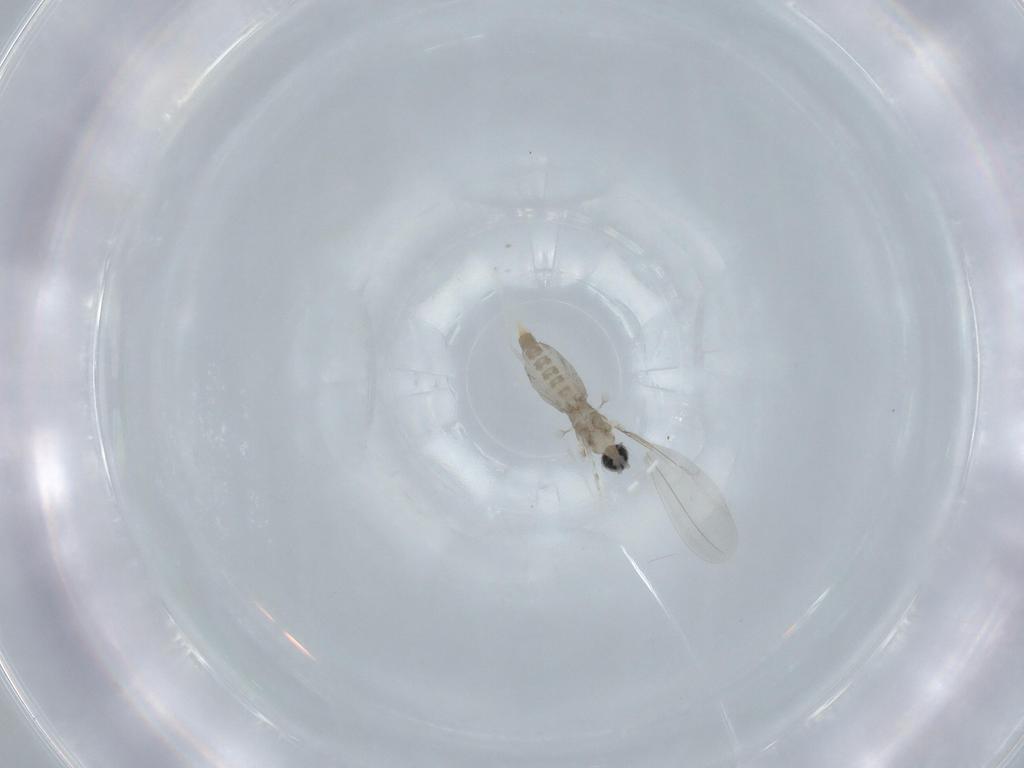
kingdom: Animalia
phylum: Arthropoda
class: Insecta
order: Diptera
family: Cecidomyiidae
